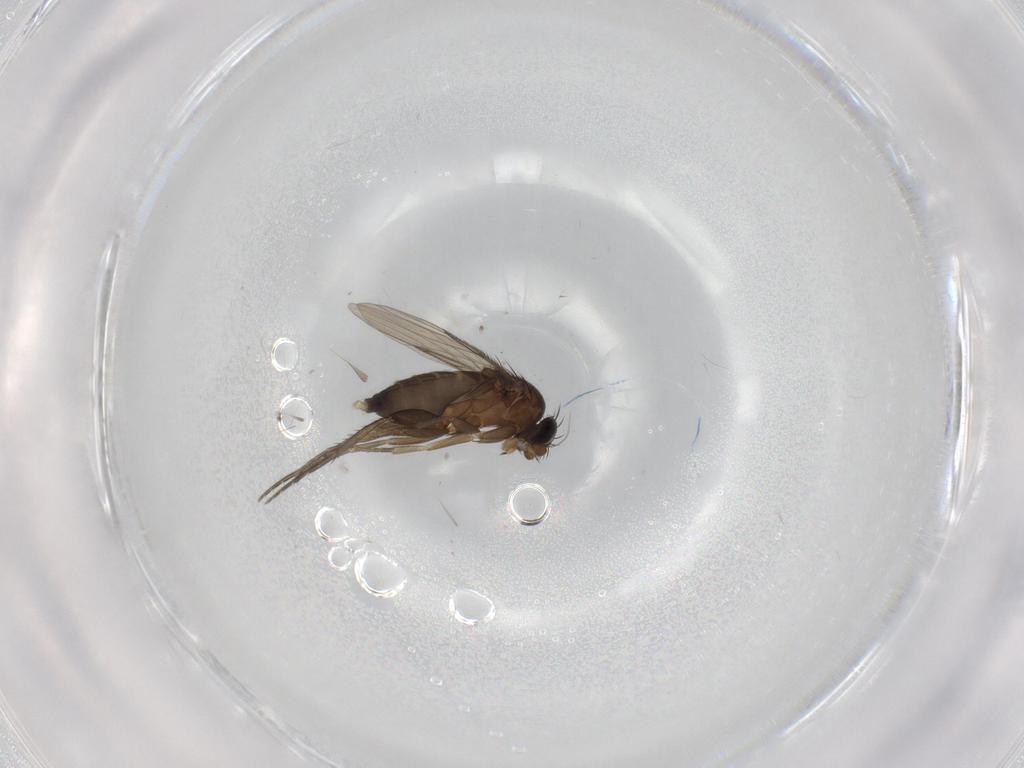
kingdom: Animalia
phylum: Arthropoda
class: Insecta
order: Diptera
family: Phoridae
